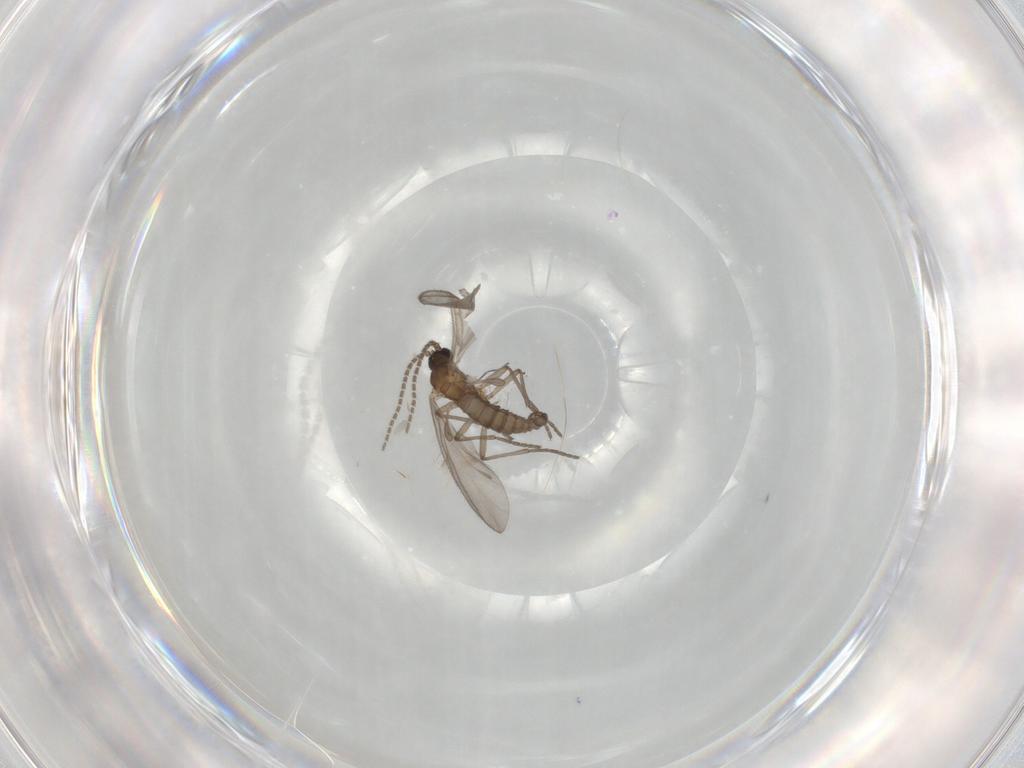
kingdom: Animalia
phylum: Arthropoda
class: Insecta
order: Diptera
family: Sciaridae
